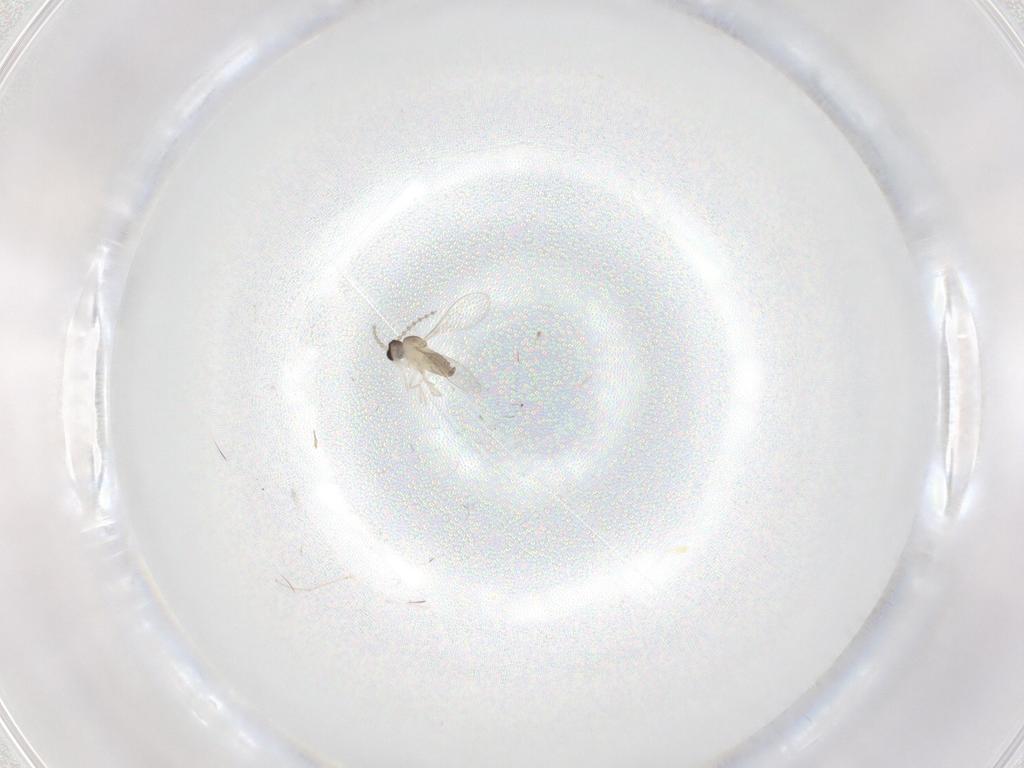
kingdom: Animalia
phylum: Arthropoda
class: Insecta
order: Diptera
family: Cecidomyiidae
